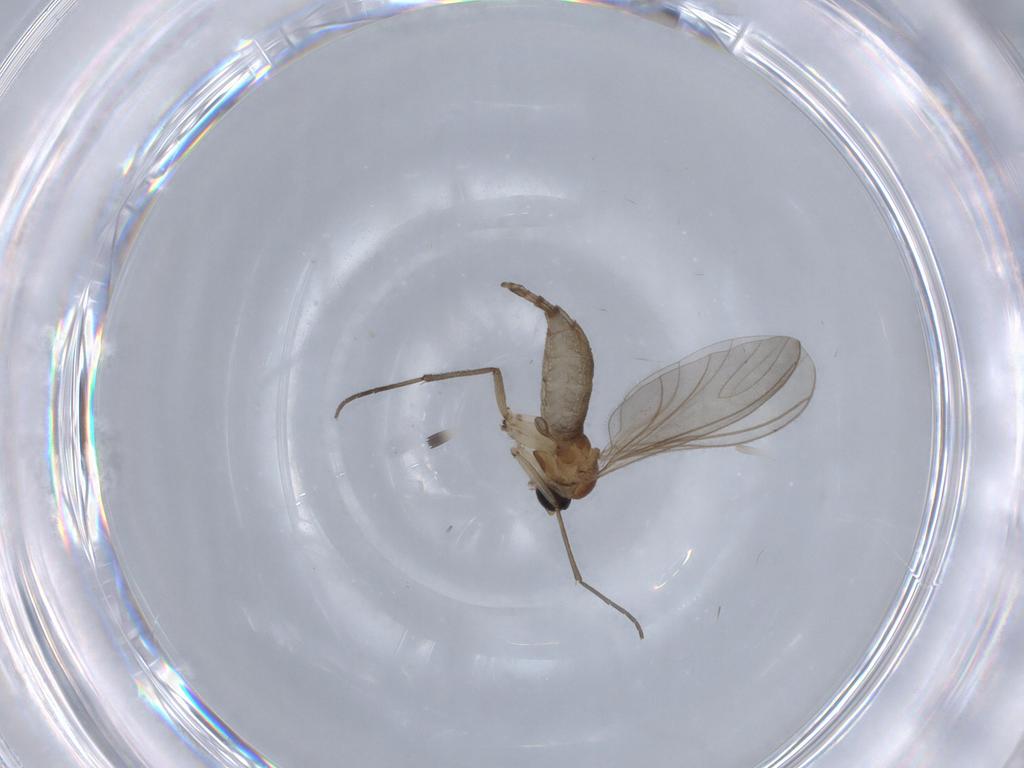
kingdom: Animalia
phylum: Arthropoda
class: Insecta
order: Diptera
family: Sciaridae
